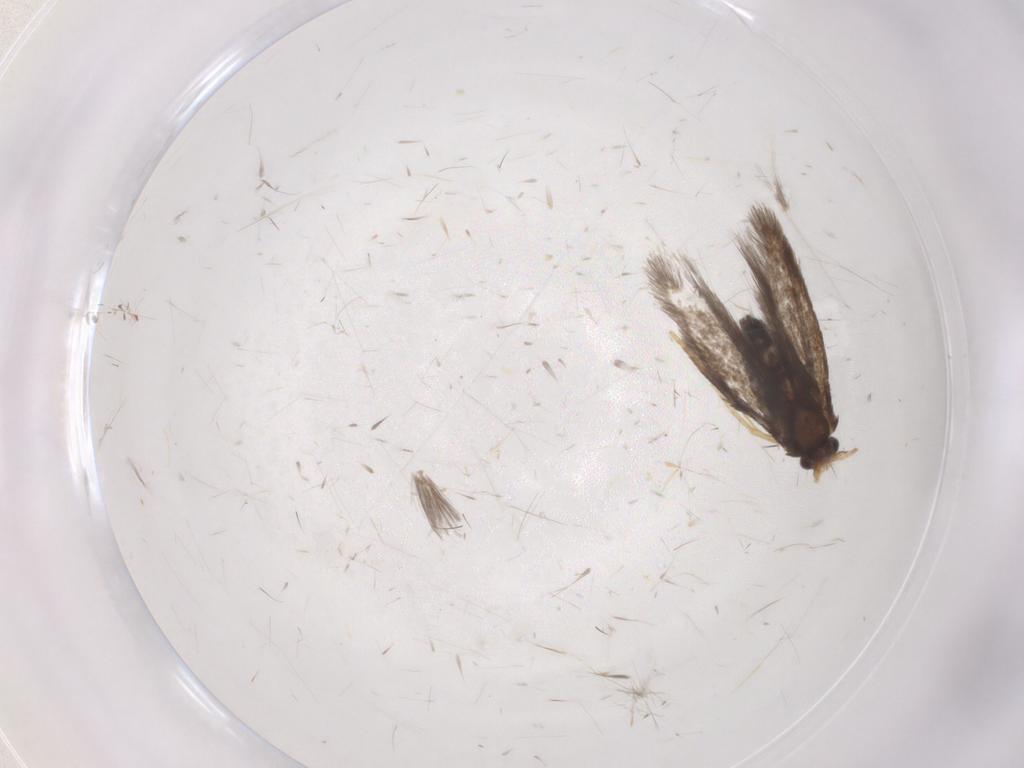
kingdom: Animalia
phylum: Arthropoda
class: Insecta
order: Lepidoptera
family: Nepticulidae
